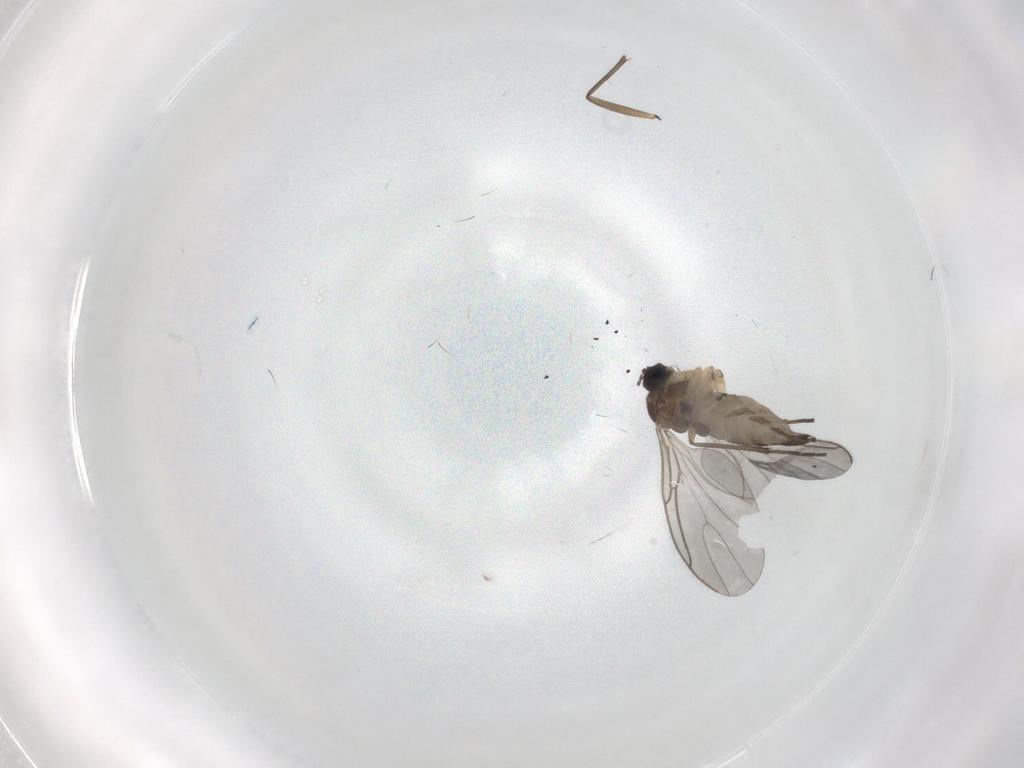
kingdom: Animalia
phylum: Arthropoda
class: Insecta
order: Diptera
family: Sciaridae
